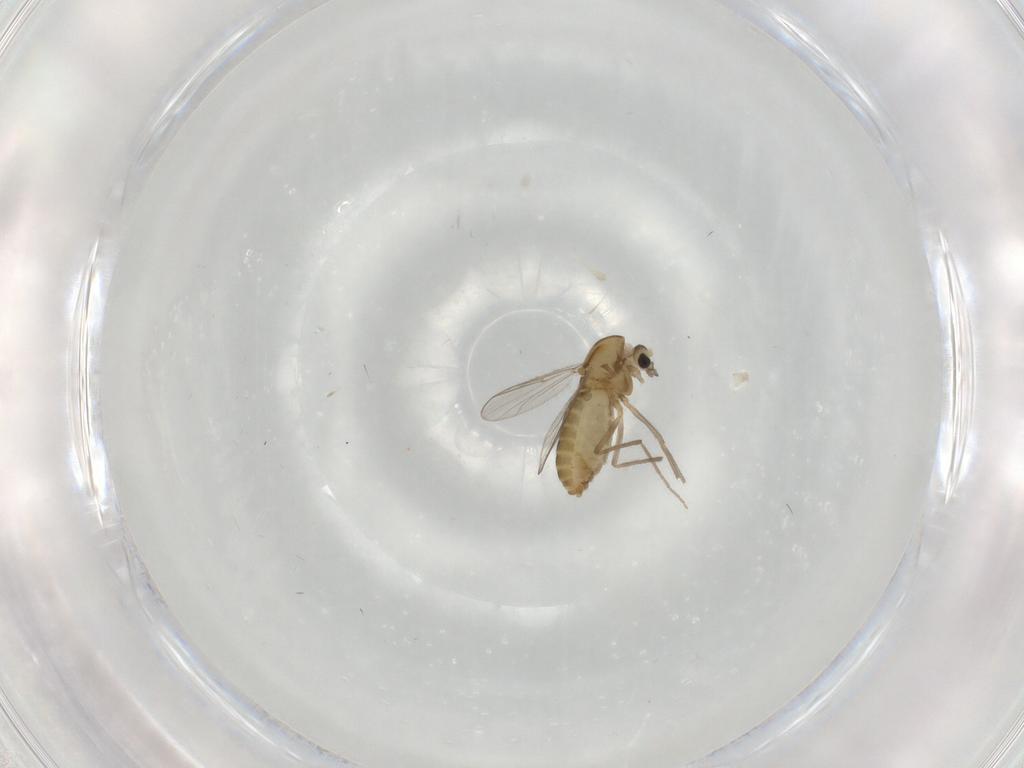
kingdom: Animalia
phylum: Arthropoda
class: Insecta
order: Diptera
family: Chironomidae
